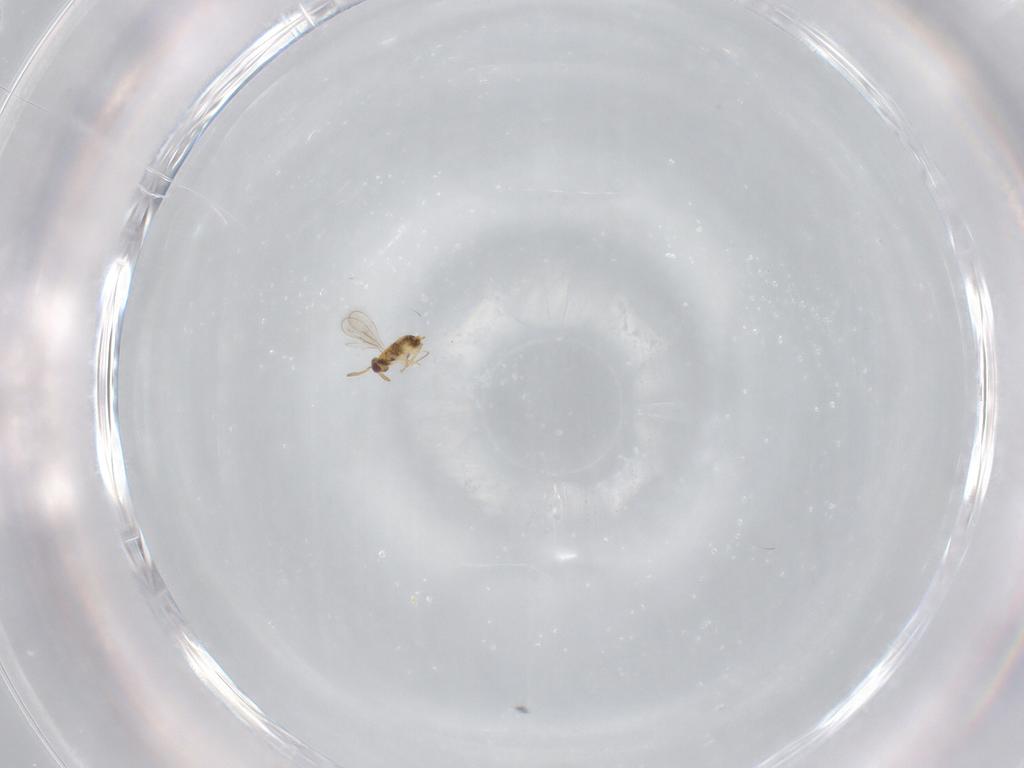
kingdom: Animalia
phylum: Arthropoda
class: Insecta
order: Hymenoptera
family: Aphelinidae
